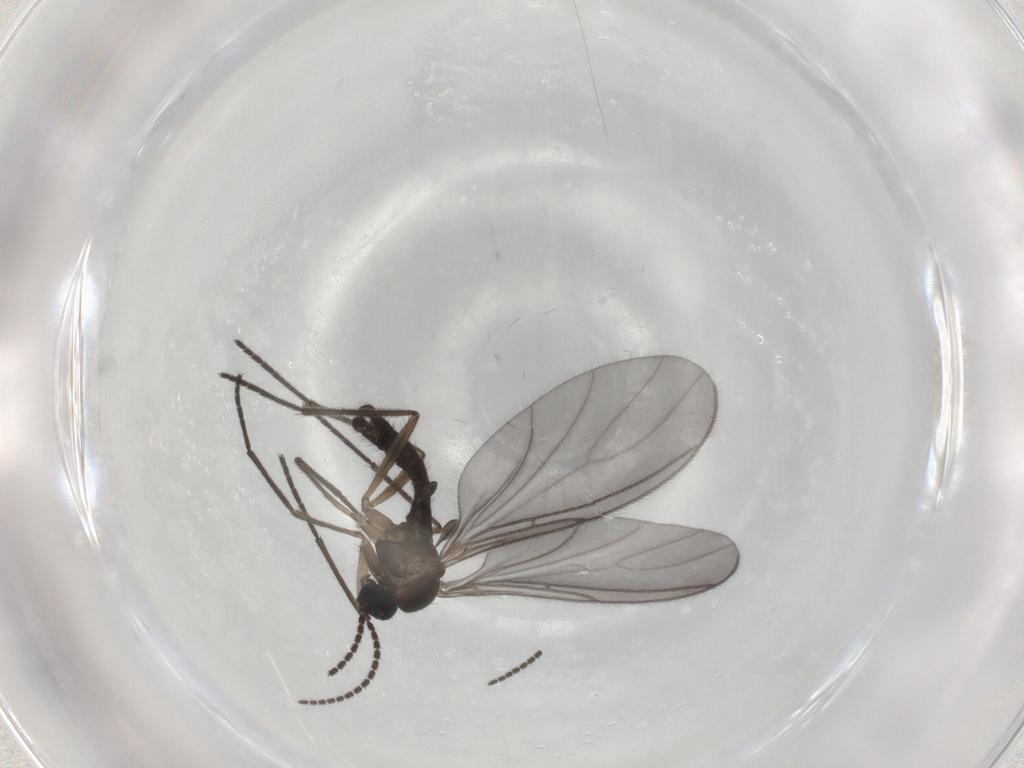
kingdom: Animalia
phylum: Arthropoda
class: Insecta
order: Diptera
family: Sciaridae
